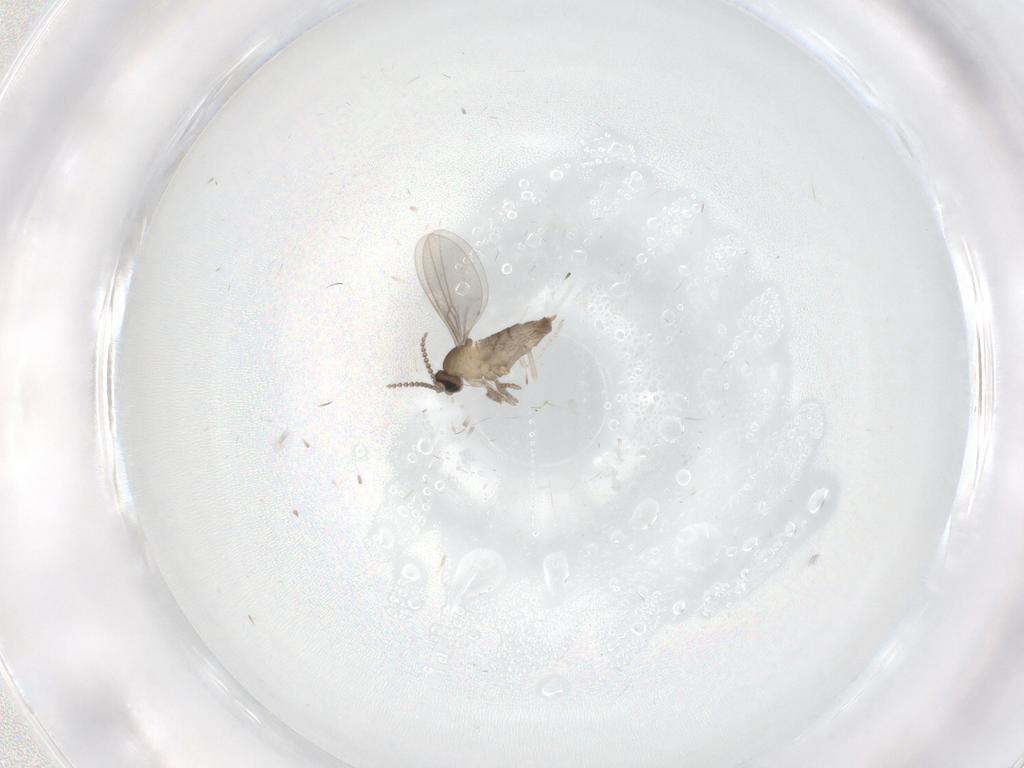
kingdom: Animalia
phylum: Arthropoda
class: Insecta
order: Diptera
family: Cecidomyiidae
